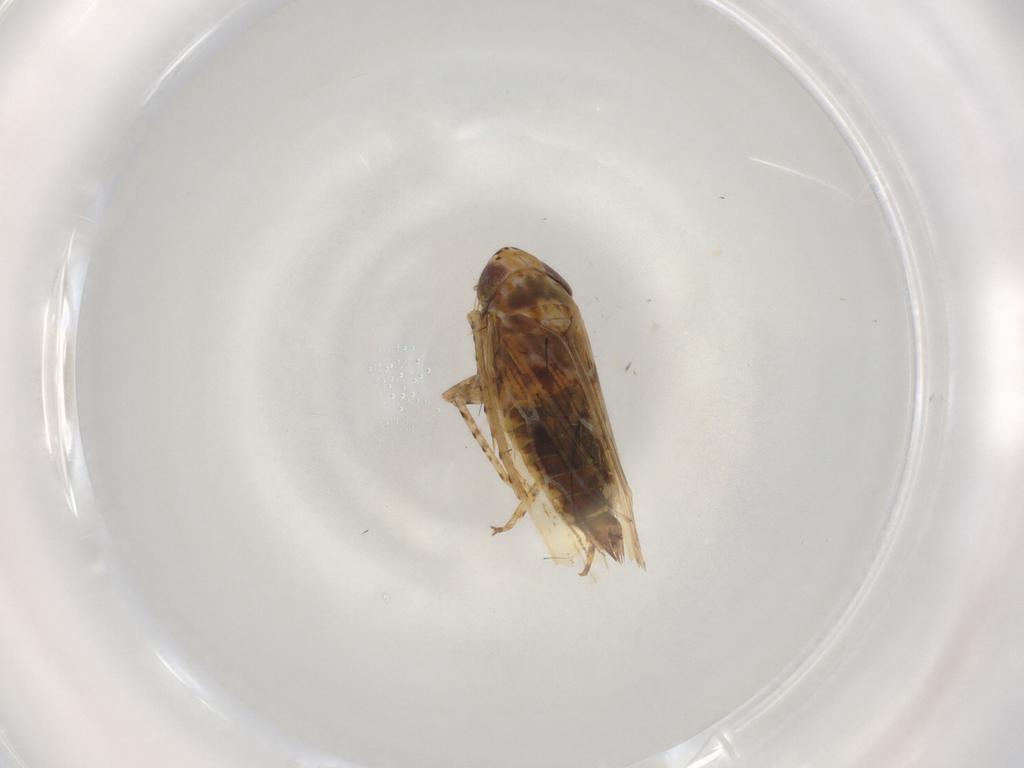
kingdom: Animalia
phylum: Arthropoda
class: Insecta
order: Hemiptera
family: Cicadellidae
